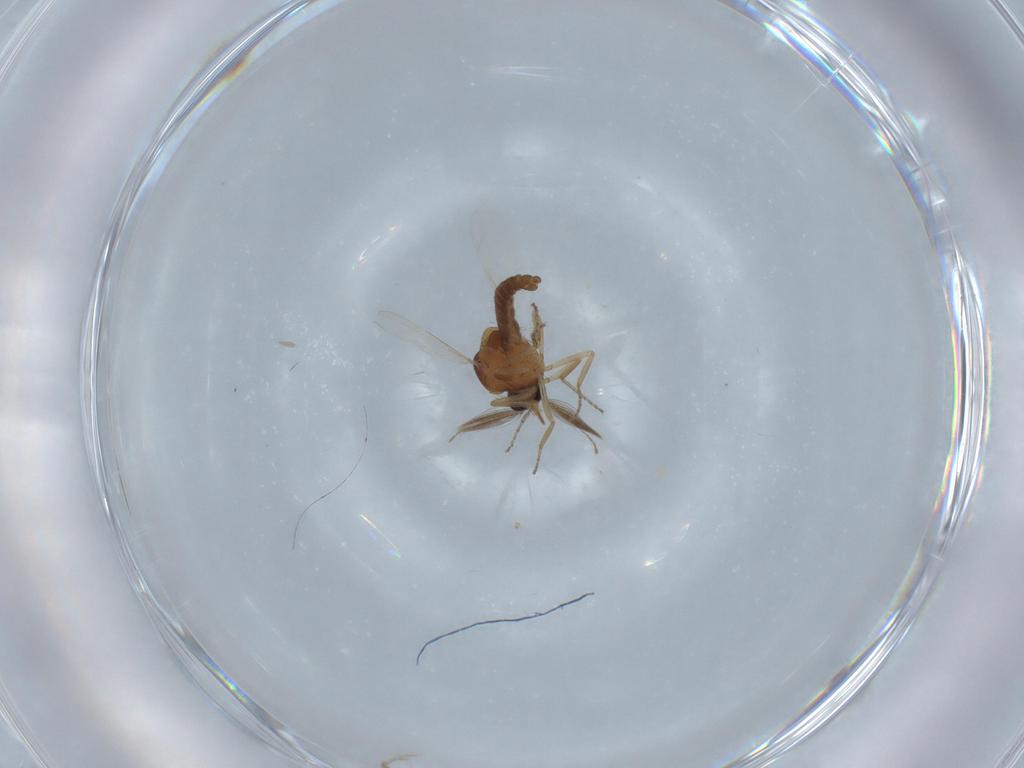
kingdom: Animalia
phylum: Arthropoda
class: Insecta
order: Diptera
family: Ceratopogonidae
